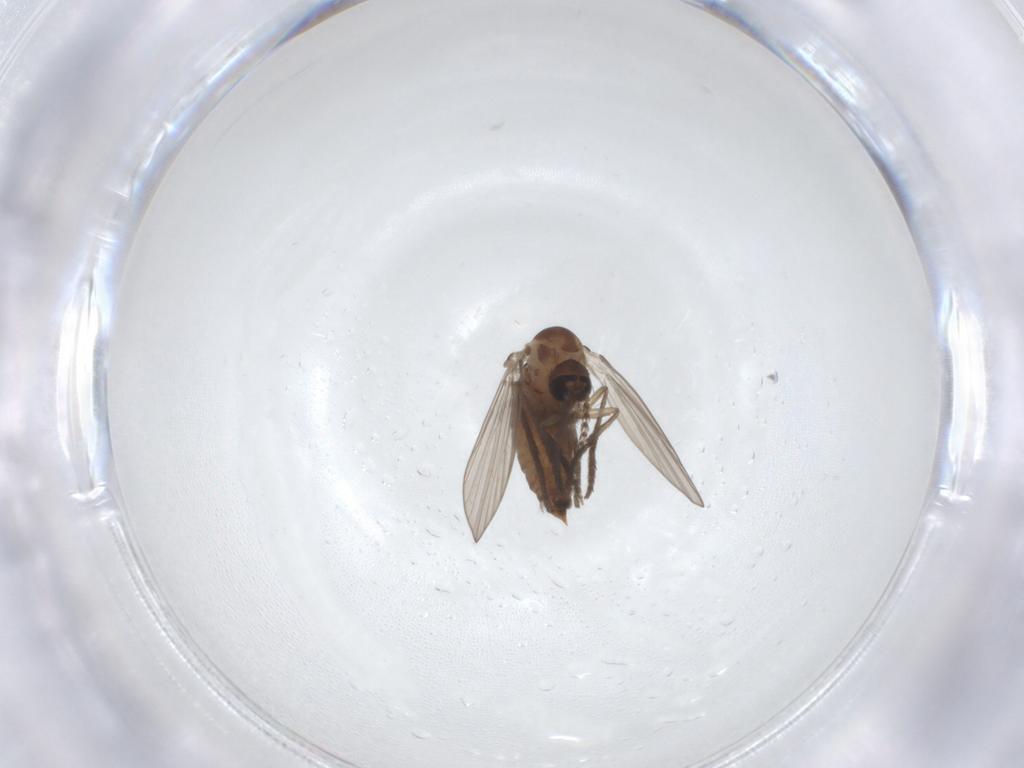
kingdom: Animalia
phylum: Arthropoda
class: Insecta
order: Diptera
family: Psychodidae
